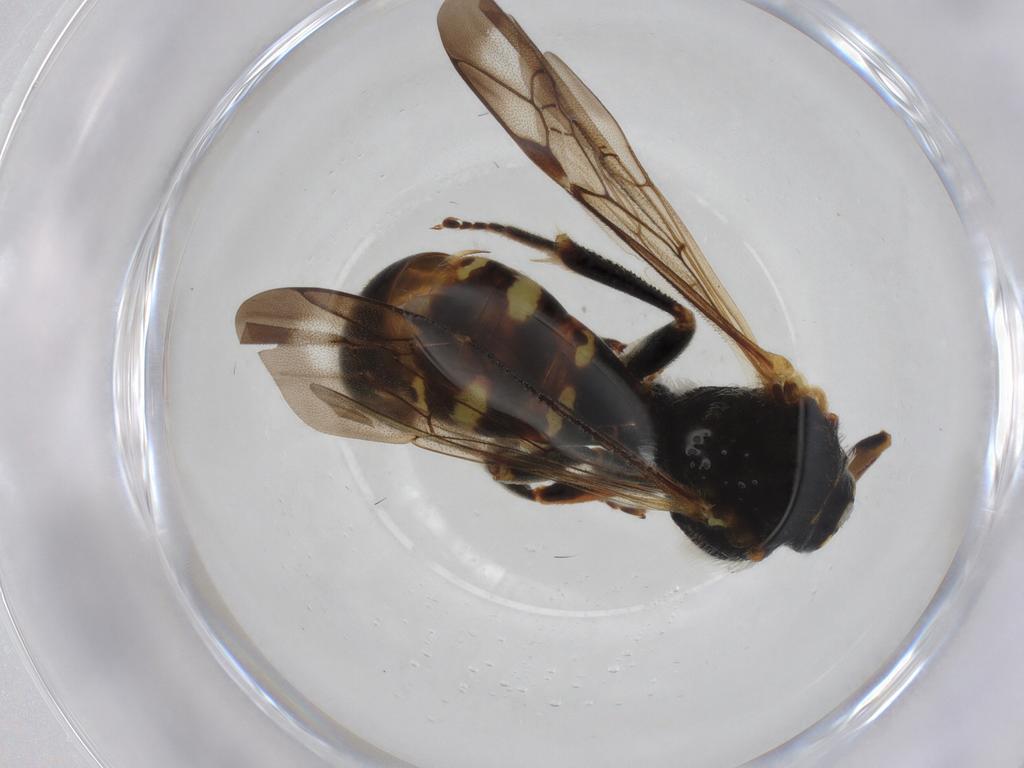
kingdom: Animalia
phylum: Arthropoda
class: Insecta
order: Hymenoptera
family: Apidae
